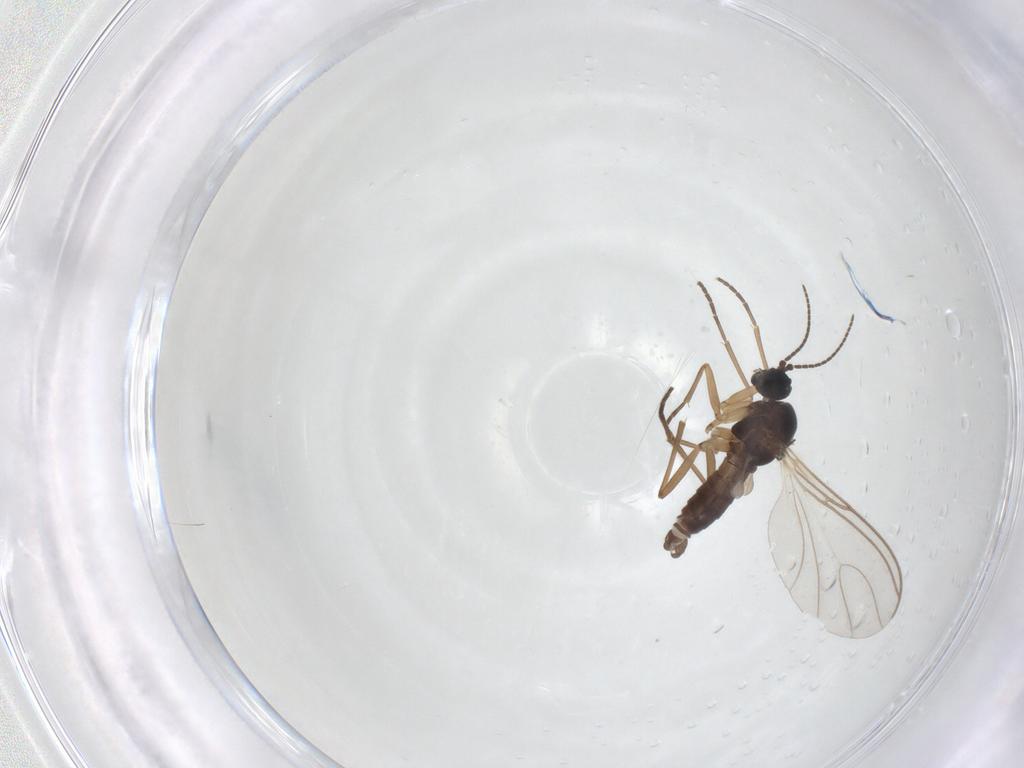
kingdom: Animalia
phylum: Arthropoda
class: Insecta
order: Diptera
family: Sciaridae
